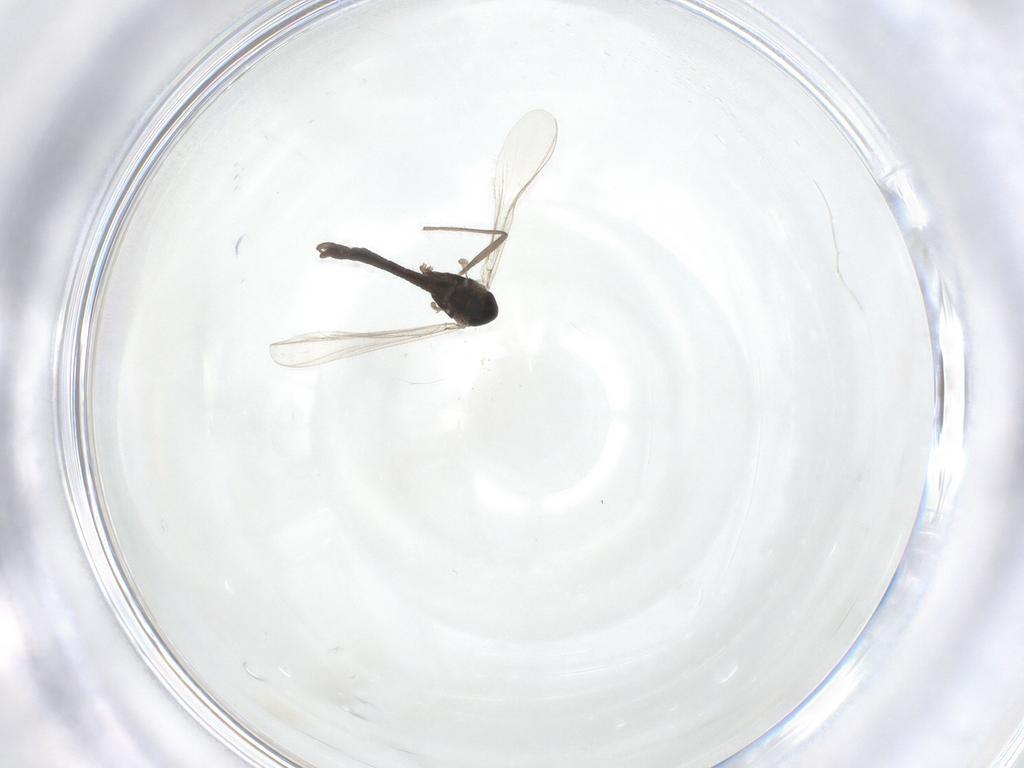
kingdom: Animalia
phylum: Arthropoda
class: Insecta
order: Diptera
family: Chironomidae
